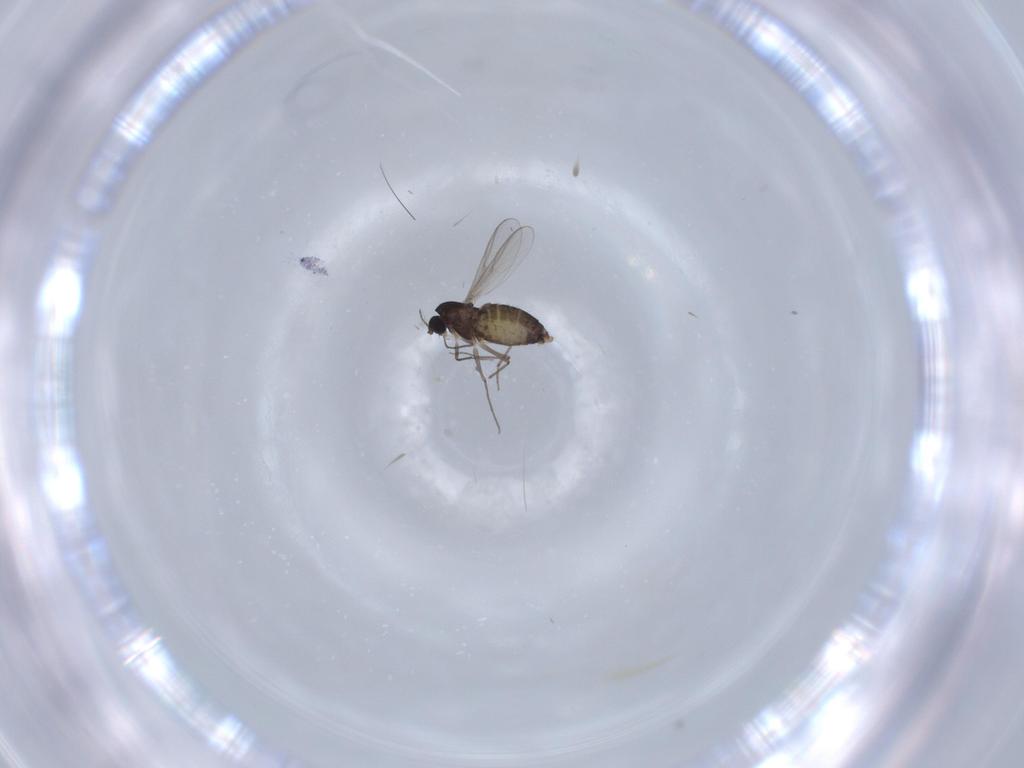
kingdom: Animalia
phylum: Arthropoda
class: Insecta
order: Diptera
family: Chironomidae
